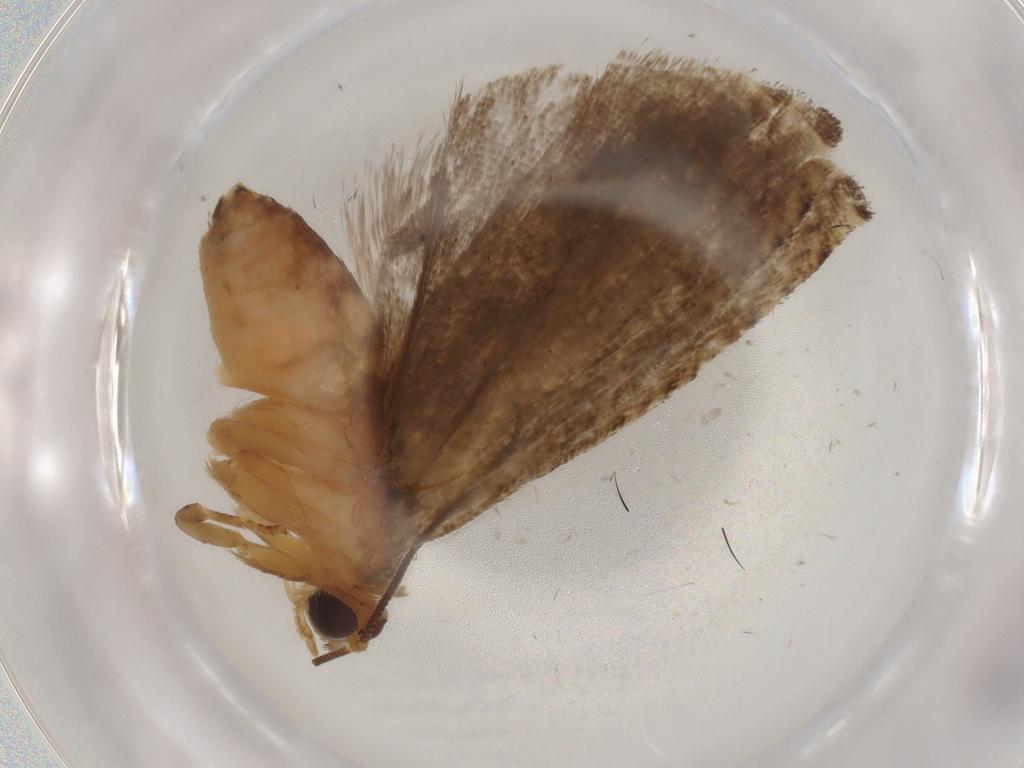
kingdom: Animalia
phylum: Arthropoda
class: Insecta
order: Lepidoptera
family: Tortricidae
